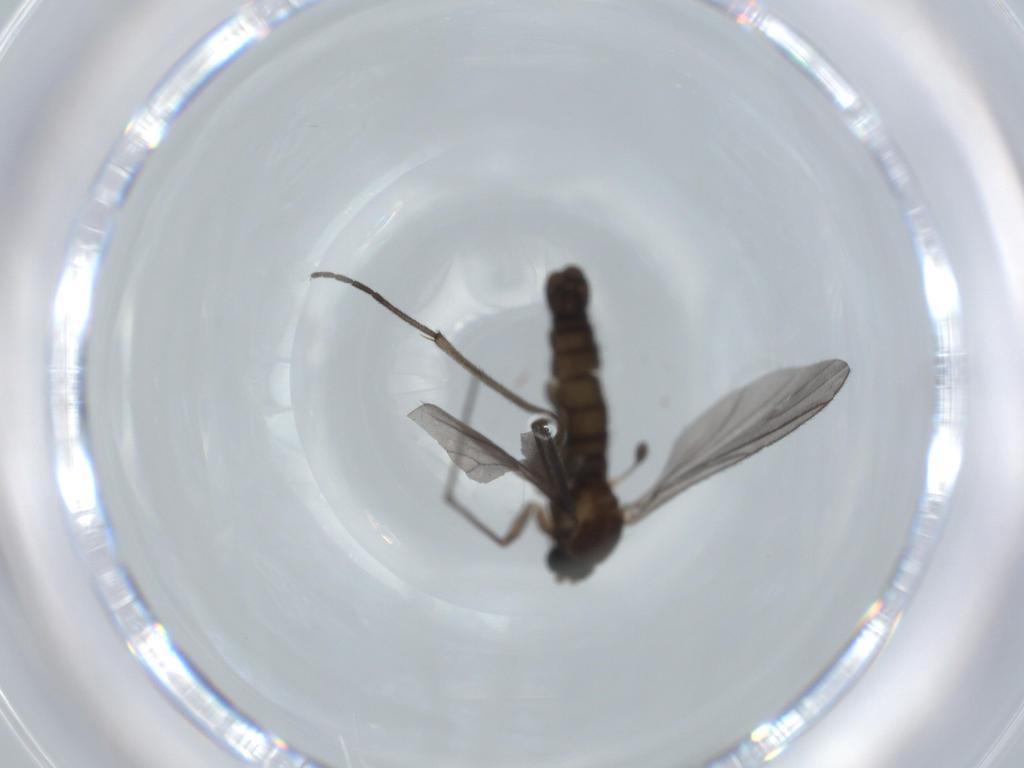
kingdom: Animalia
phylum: Arthropoda
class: Insecta
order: Diptera
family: Sciaridae
